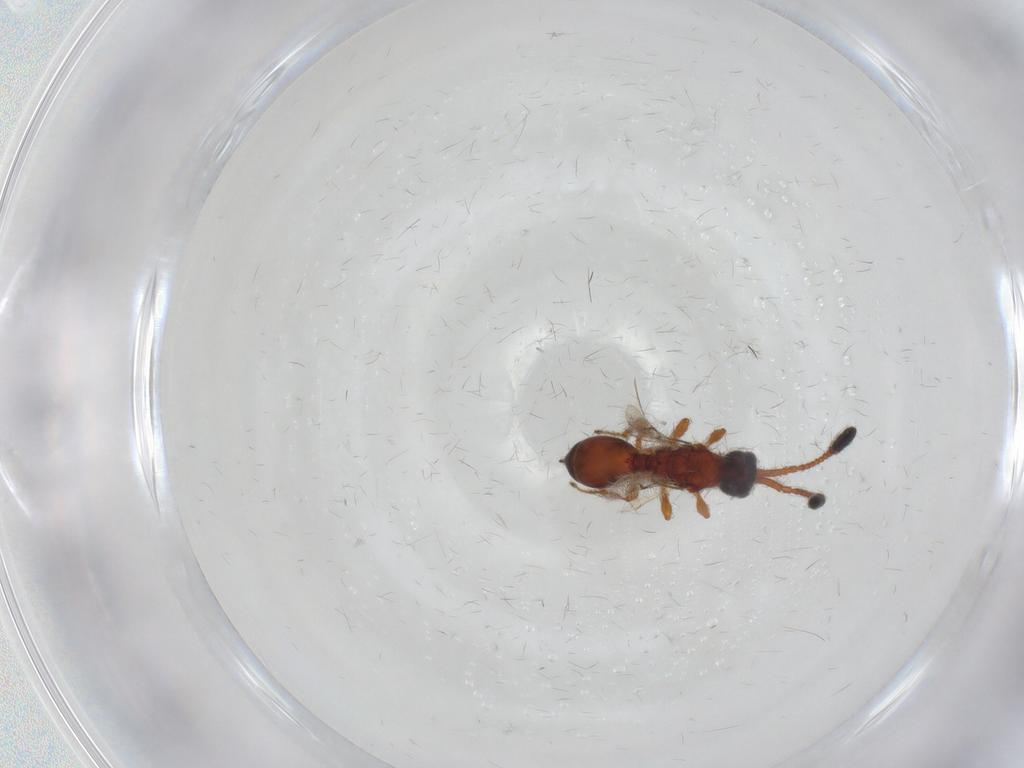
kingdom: Animalia
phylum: Arthropoda
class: Insecta
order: Hymenoptera
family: Diapriidae
